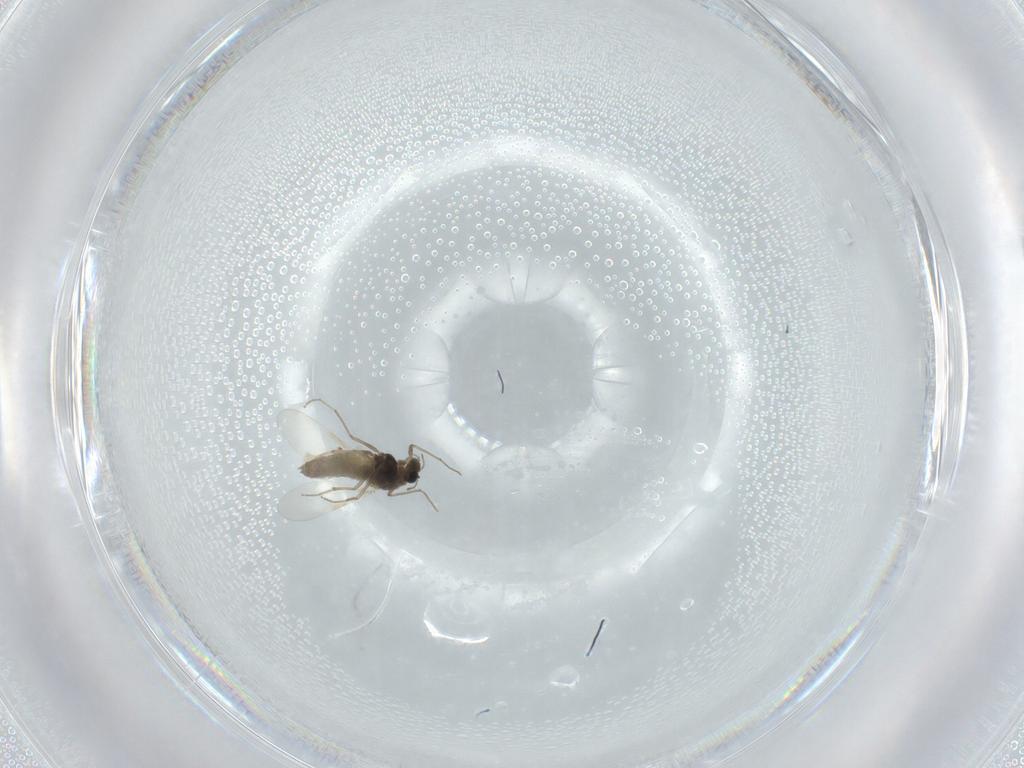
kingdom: Animalia
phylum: Arthropoda
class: Insecta
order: Diptera
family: Chironomidae
